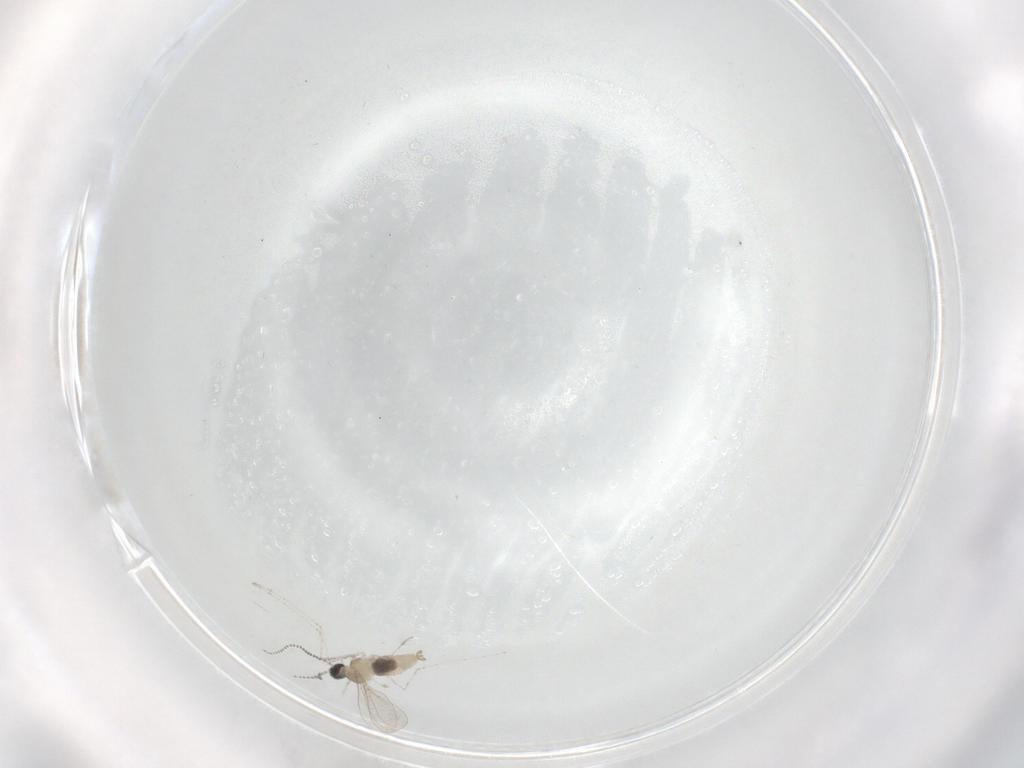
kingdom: Animalia
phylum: Arthropoda
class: Insecta
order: Diptera
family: Cecidomyiidae
